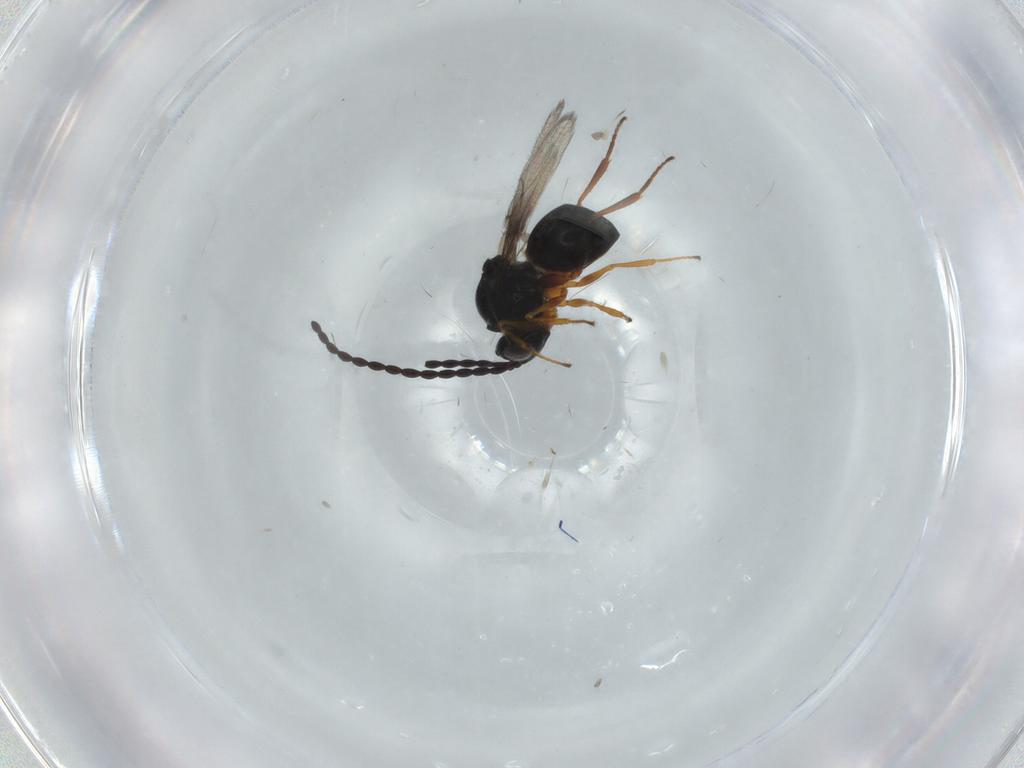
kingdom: Animalia
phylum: Arthropoda
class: Insecta
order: Hymenoptera
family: Figitidae
